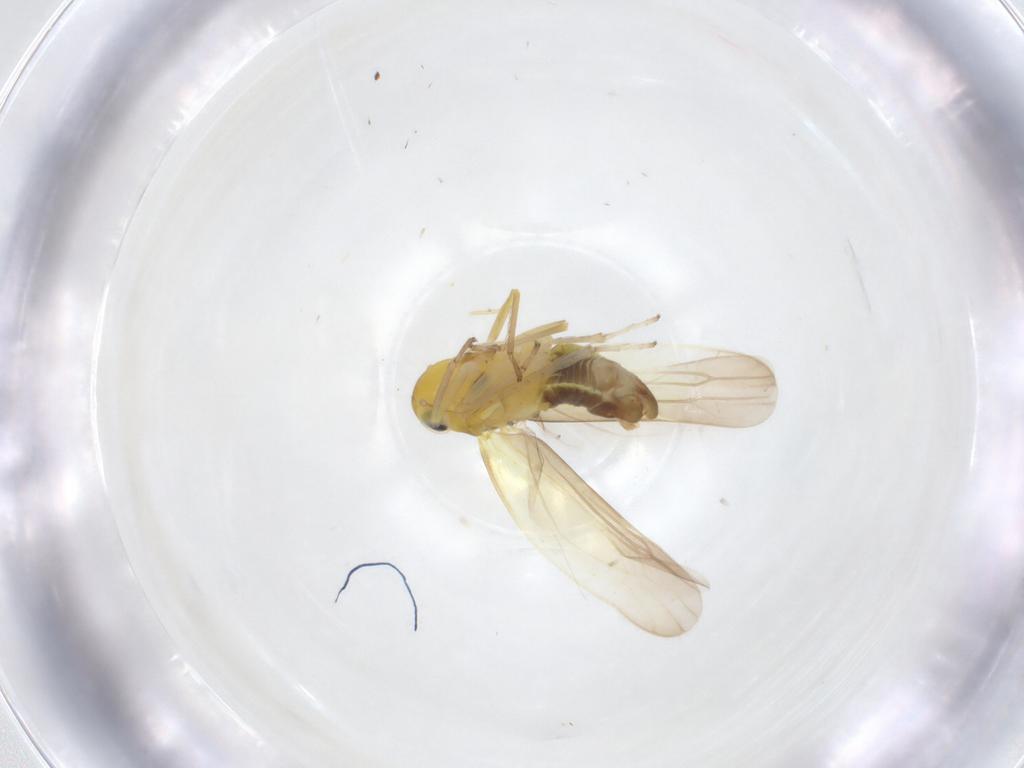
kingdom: Animalia
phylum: Arthropoda
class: Insecta
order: Hemiptera
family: Cicadellidae
